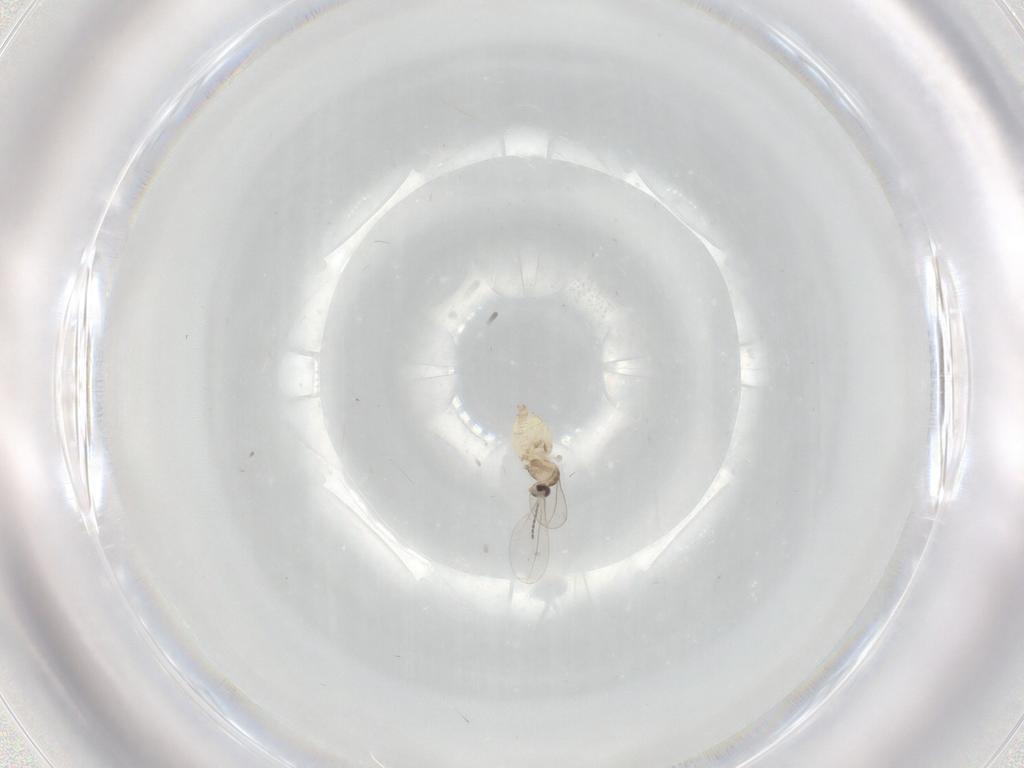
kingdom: Animalia
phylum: Arthropoda
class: Insecta
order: Diptera
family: Cecidomyiidae
